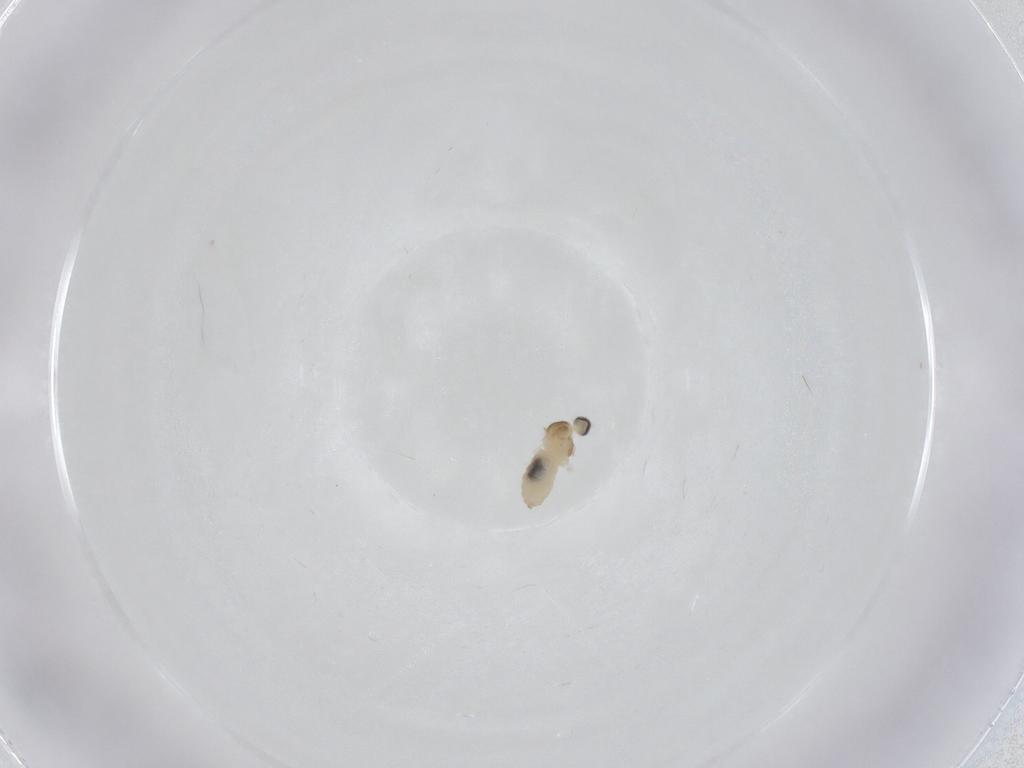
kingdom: Animalia
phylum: Arthropoda
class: Insecta
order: Diptera
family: Cecidomyiidae
